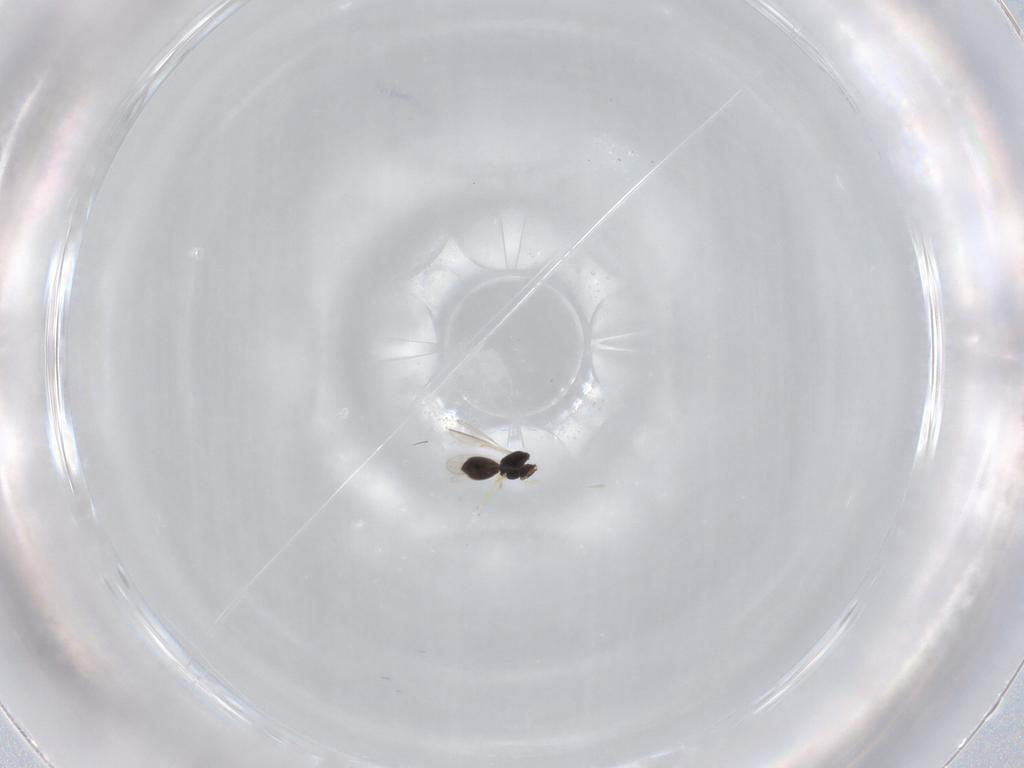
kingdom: Animalia
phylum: Arthropoda
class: Insecta
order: Hymenoptera
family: Scelionidae
